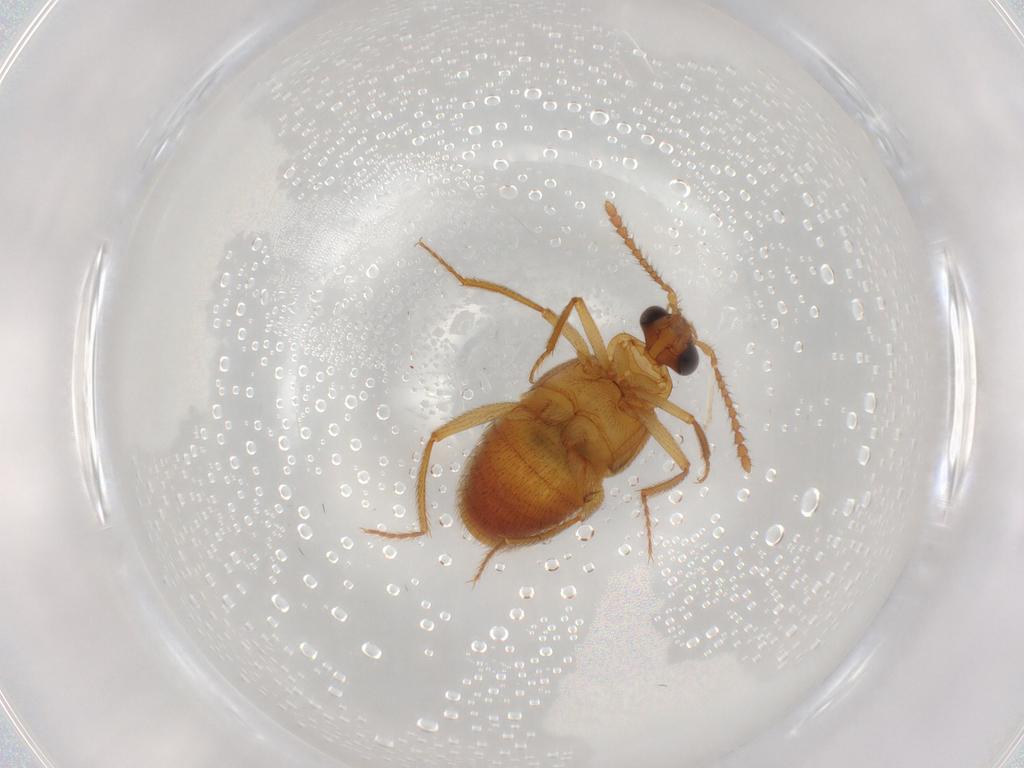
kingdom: Animalia
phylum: Arthropoda
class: Insecta
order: Coleoptera
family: Staphylinidae
